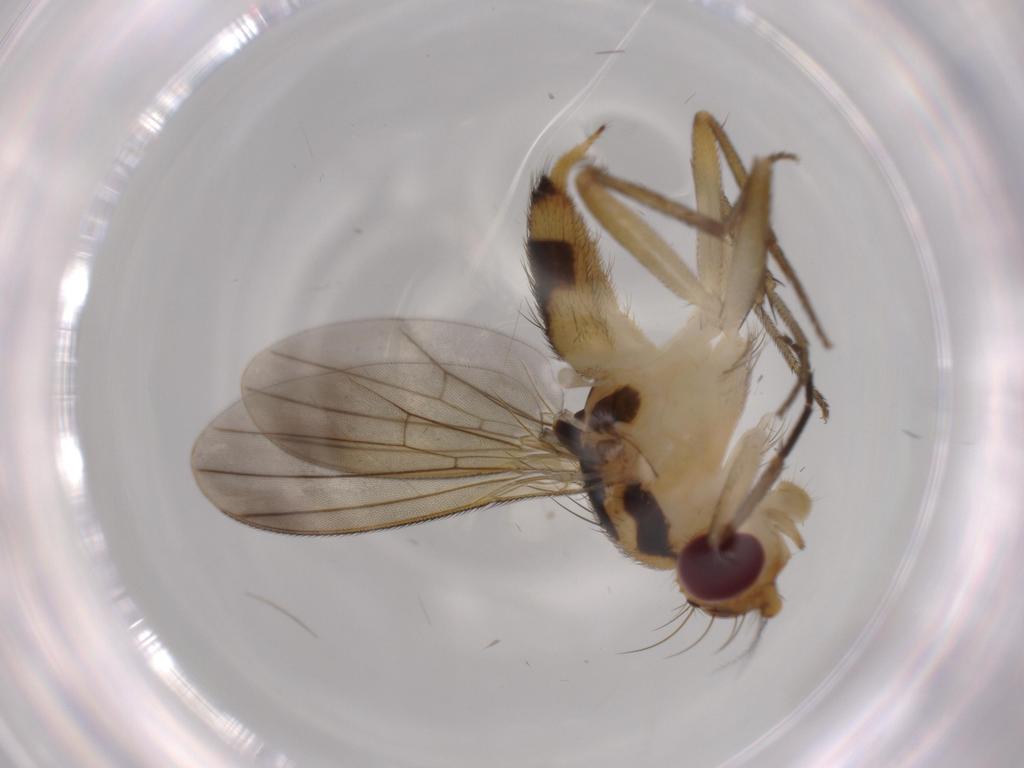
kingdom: Animalia
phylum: Arthropoda
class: Insecta
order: Diptera
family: Clusiidae
